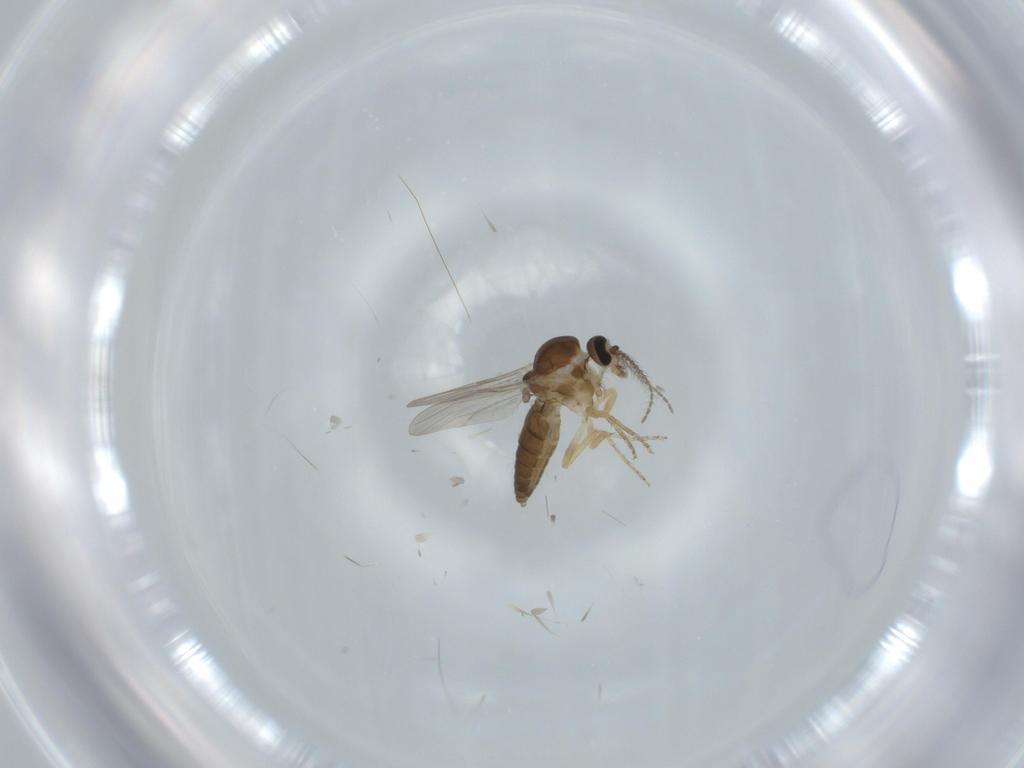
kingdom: Animalia
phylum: Arthropoda
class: Insecta
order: Diptera
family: Ceratopogonidae
